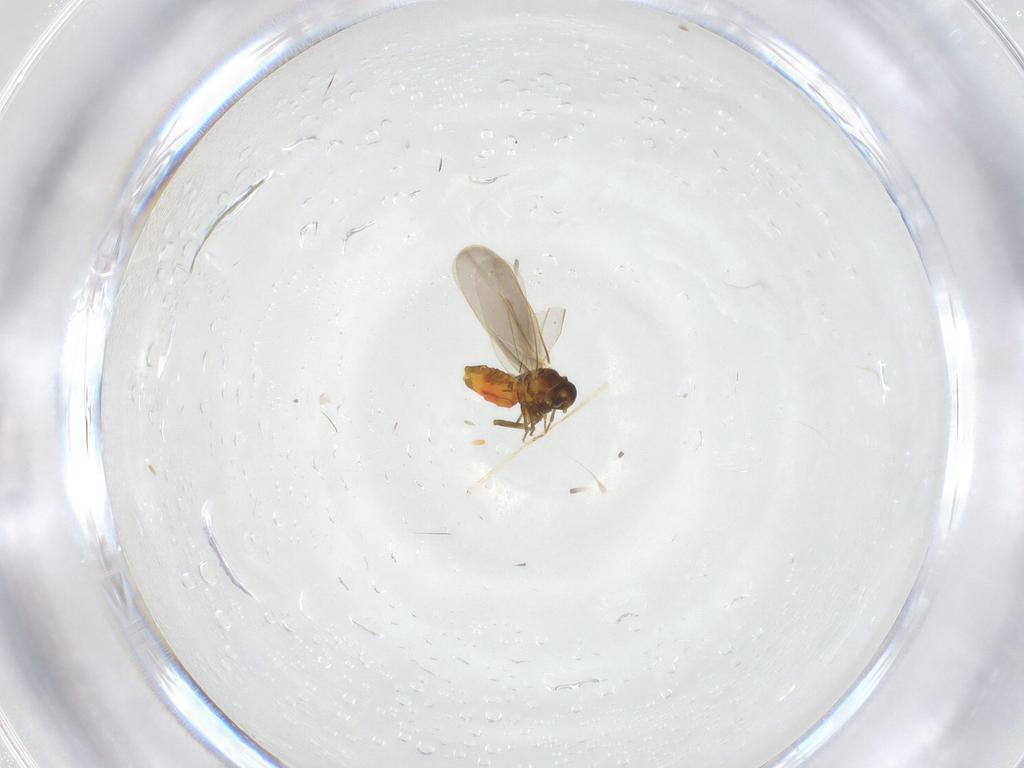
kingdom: Animalia
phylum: Arthropoda
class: Insecta
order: Hemiptera
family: Aleyrodidae
